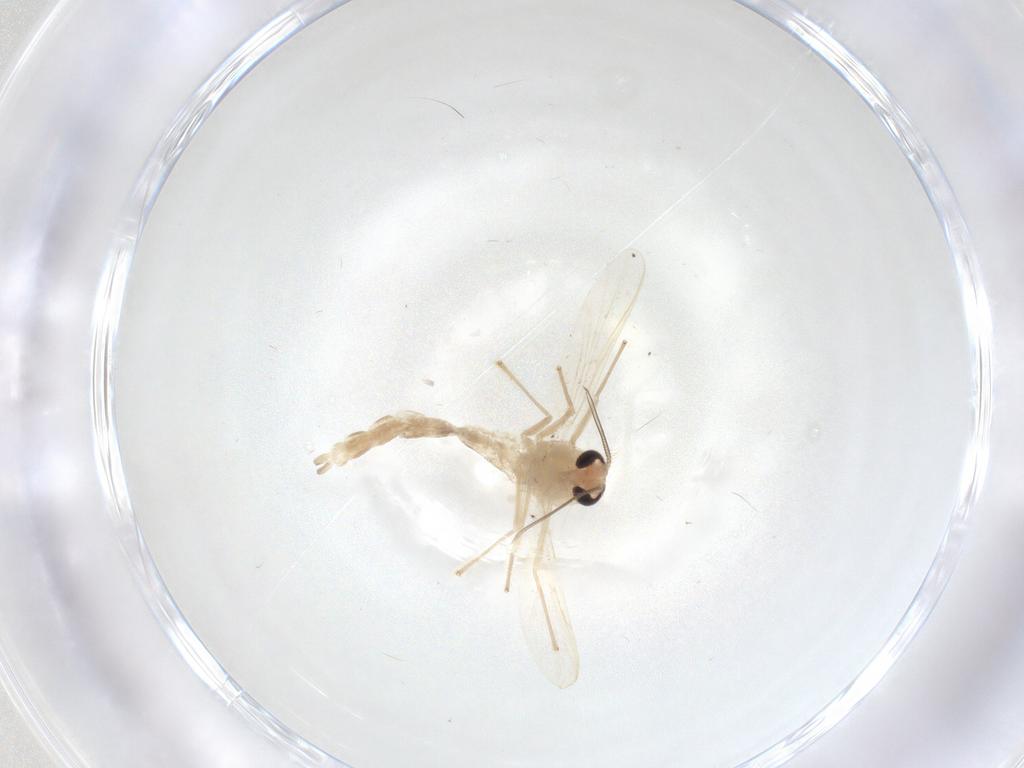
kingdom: Animalia
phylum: Arthropoda
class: Insecta
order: Diptera
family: Chironomidae
